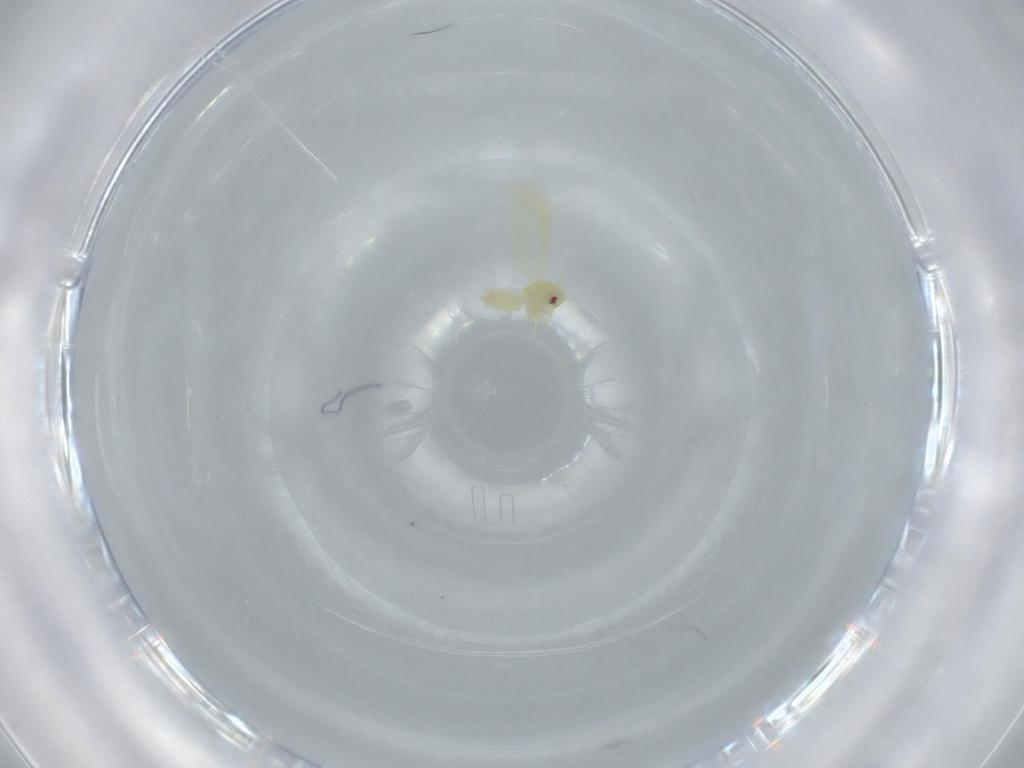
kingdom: Animalia
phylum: Arthropoda
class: Insecta
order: Hemiptera
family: Aleyrodidae
